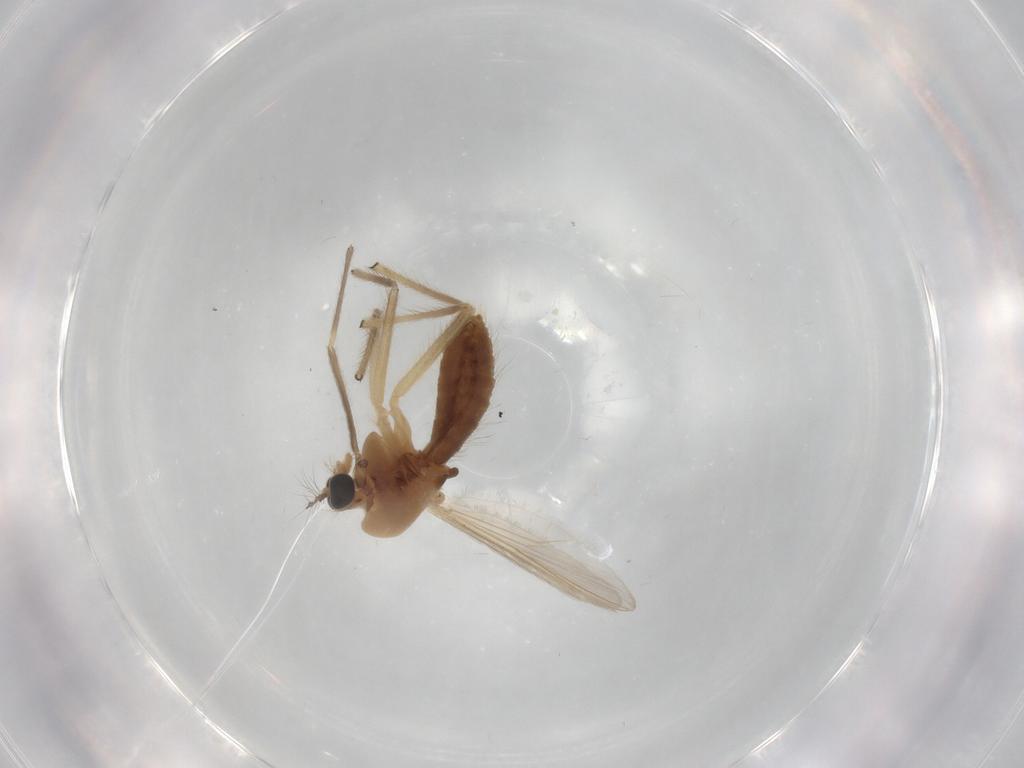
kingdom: Animalia
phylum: Arthropoda
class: Insecta
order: Diptera
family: Chironomidae
